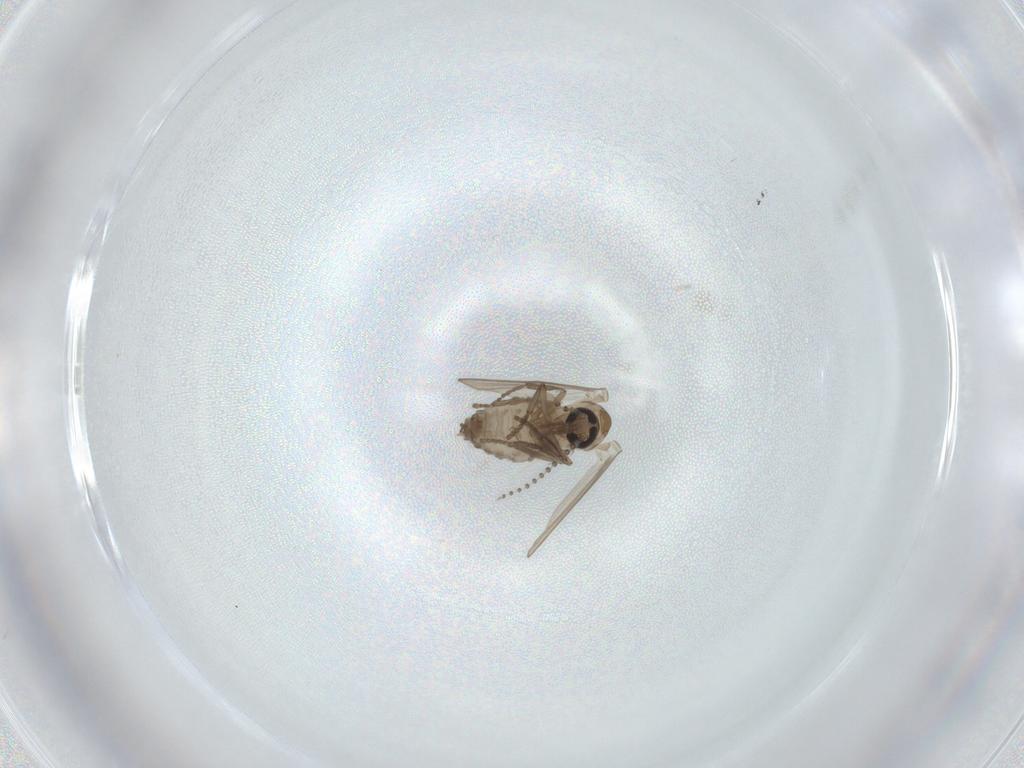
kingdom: Animalia
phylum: Arthropoda
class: Insecta
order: Diptera
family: Psychodidae
